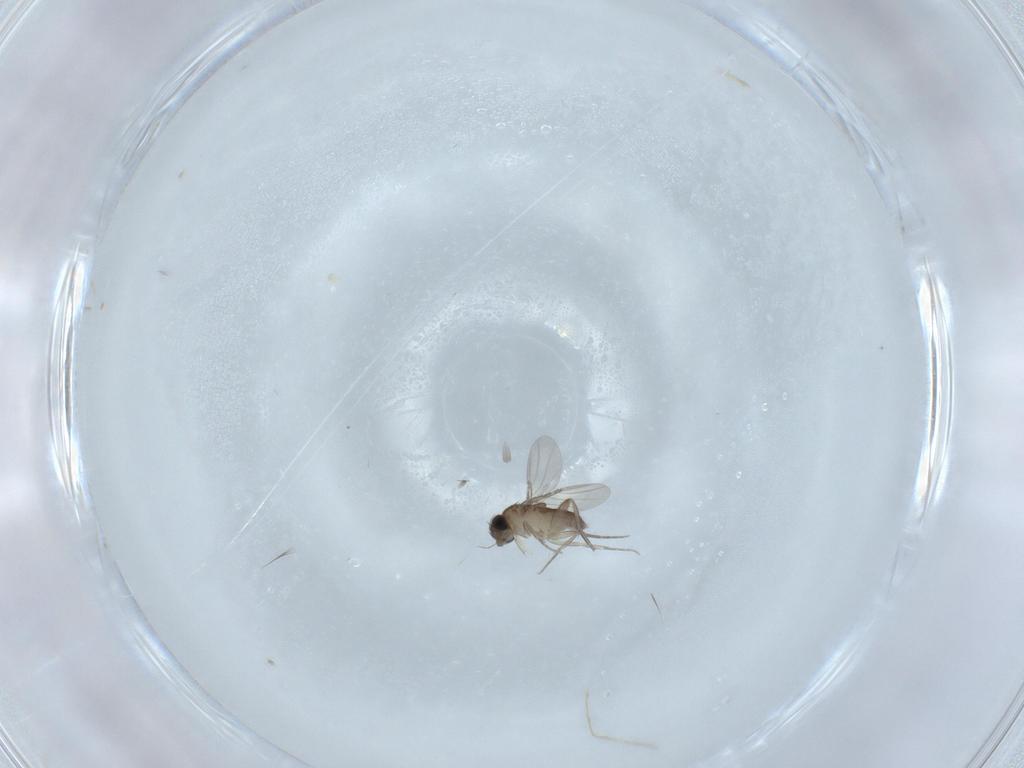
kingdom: Animalia
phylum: Arthropoda
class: Insecta
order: Diptera
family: Phoridae
